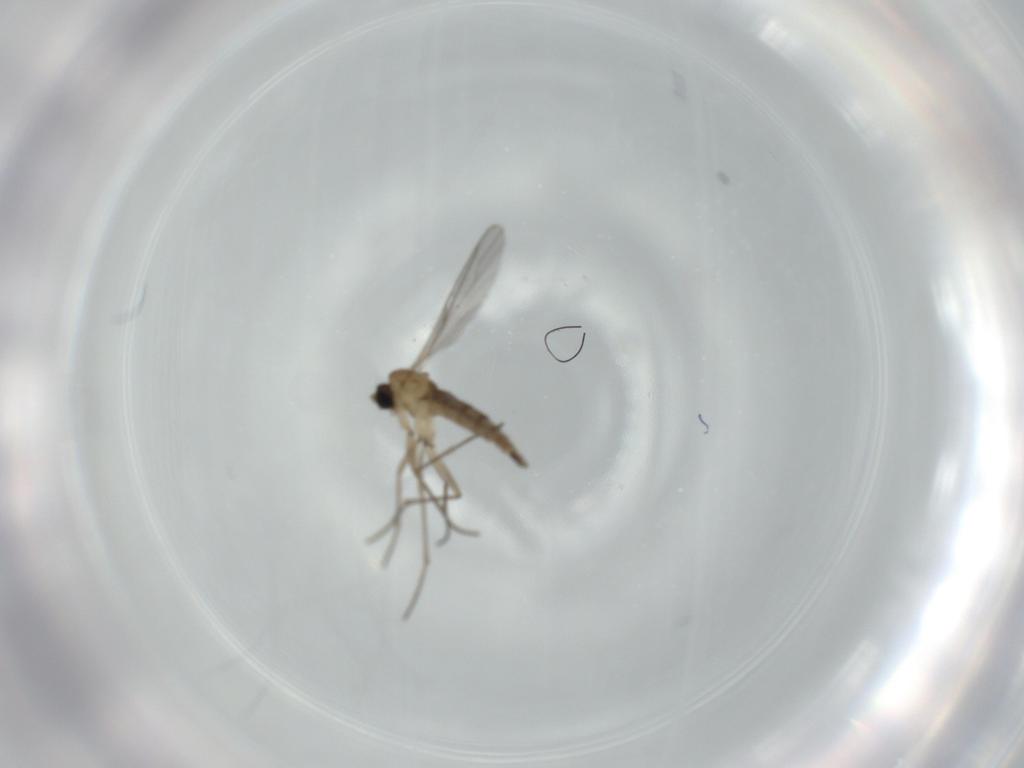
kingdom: Animalia
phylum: Arthropoda
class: Insecta
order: Diptera
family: Sciaridae
